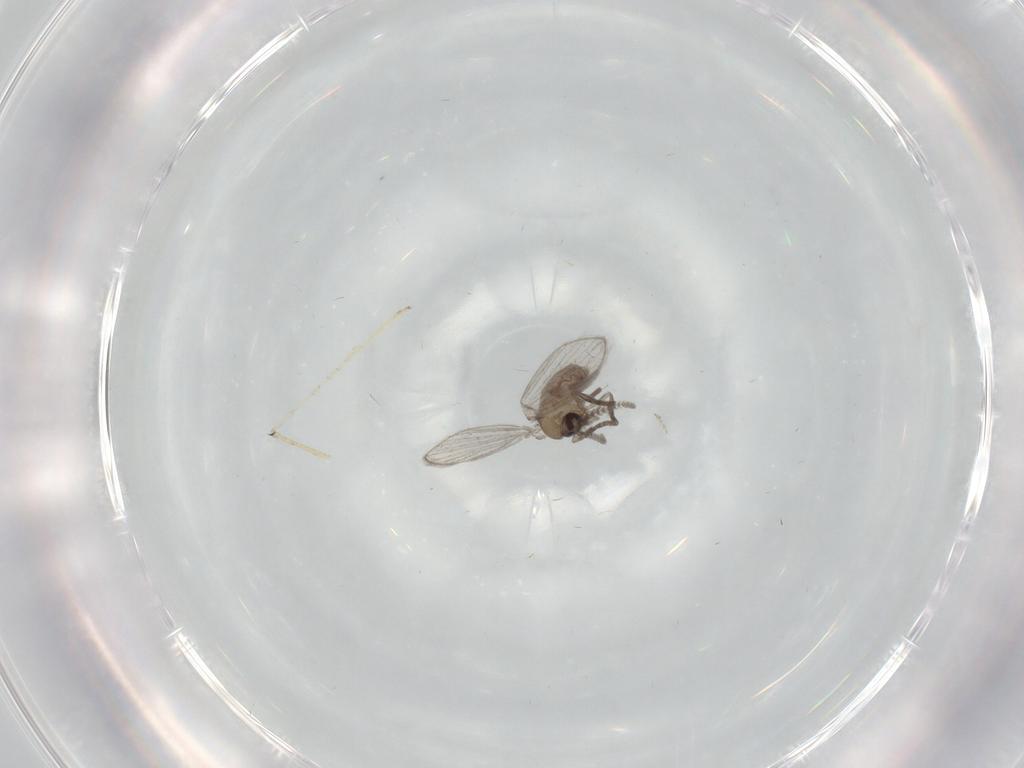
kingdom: Animalia
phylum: Arthropoda
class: Insecta
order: Diptera
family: Psychodidae
